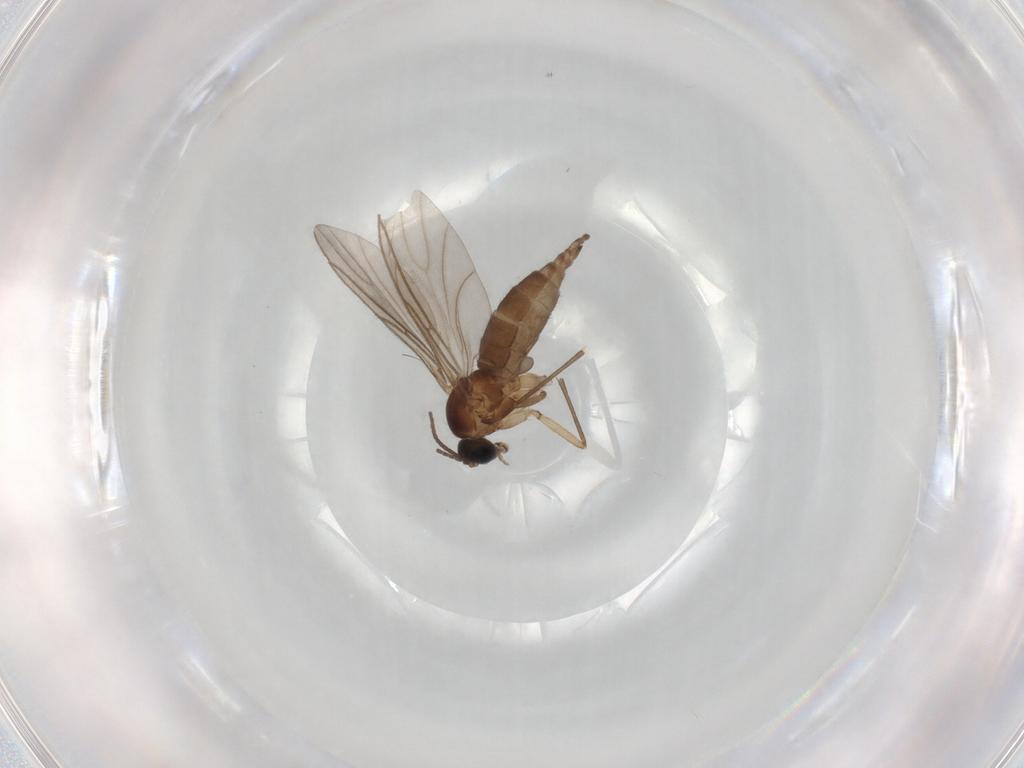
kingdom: Animalia
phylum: Arthropoda
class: Insecta
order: Diptera
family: Sciaridae
